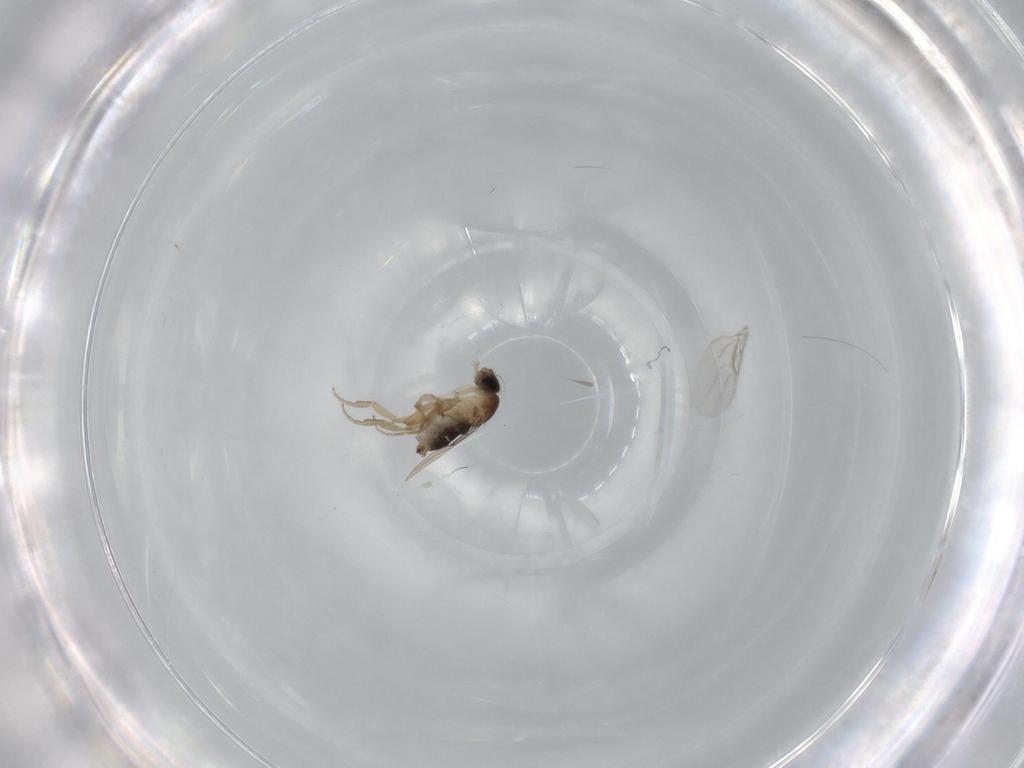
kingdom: Animalia
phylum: Arthropoda
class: Insecta
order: Diptera
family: Phoridae
